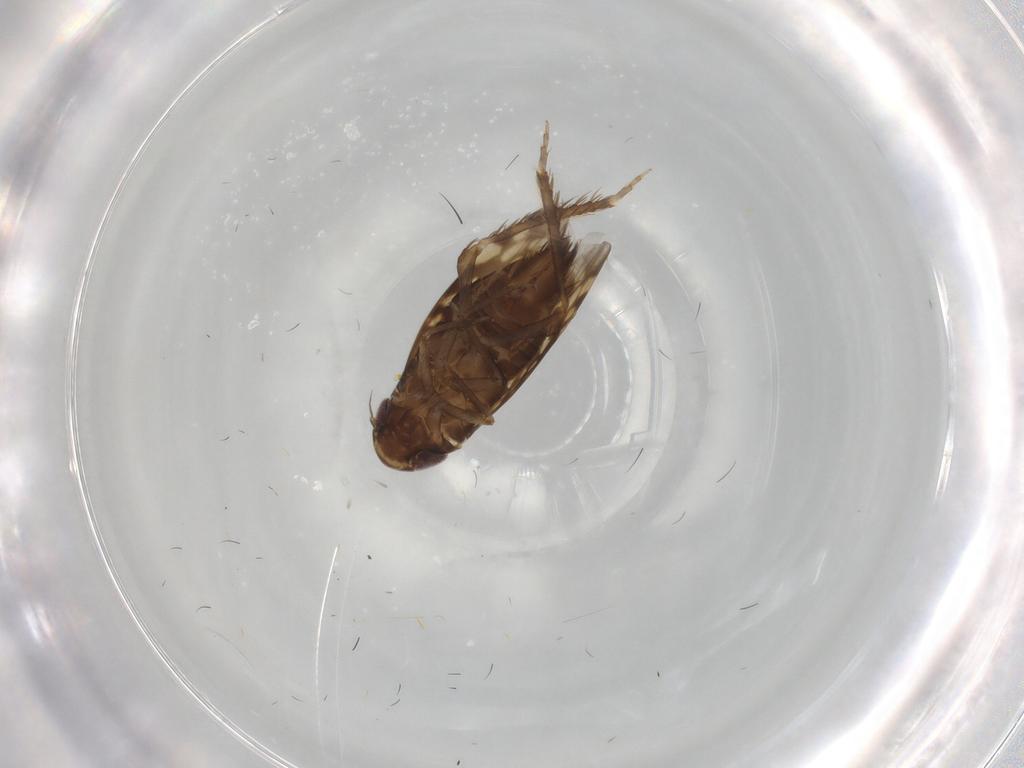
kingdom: Animalia
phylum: Arthropoda
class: Insecta
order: Hemiptera
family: Cicadellidae
